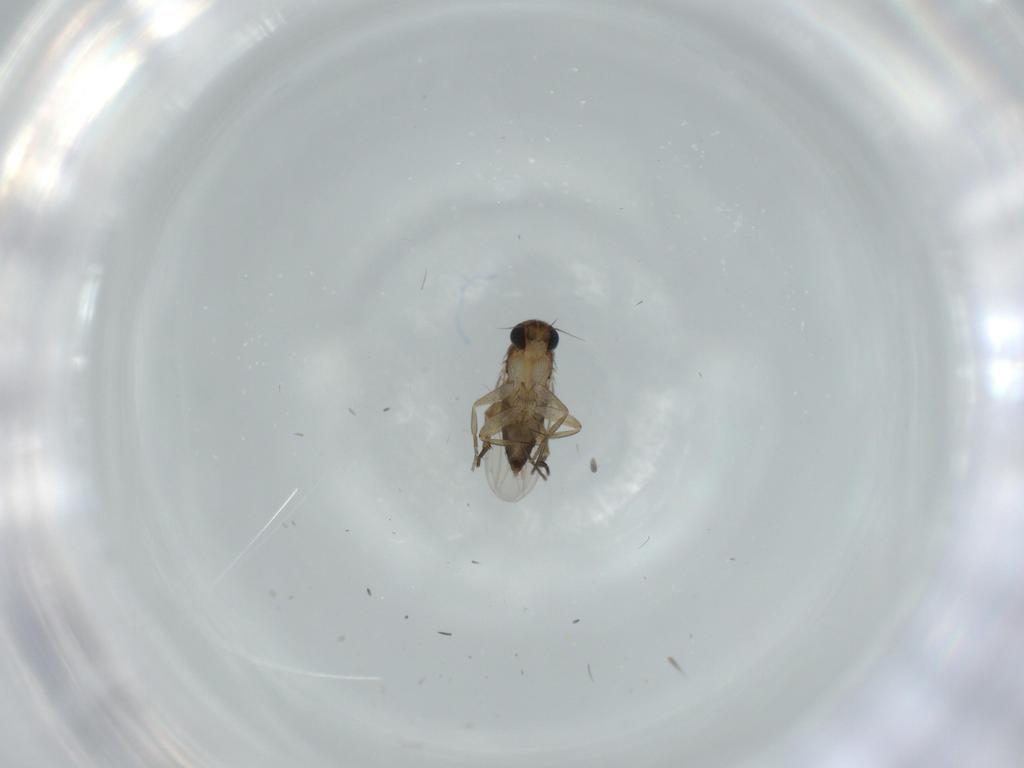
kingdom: Animalia
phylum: Arthropoda
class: Insecta
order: Diptera
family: Phoridae
